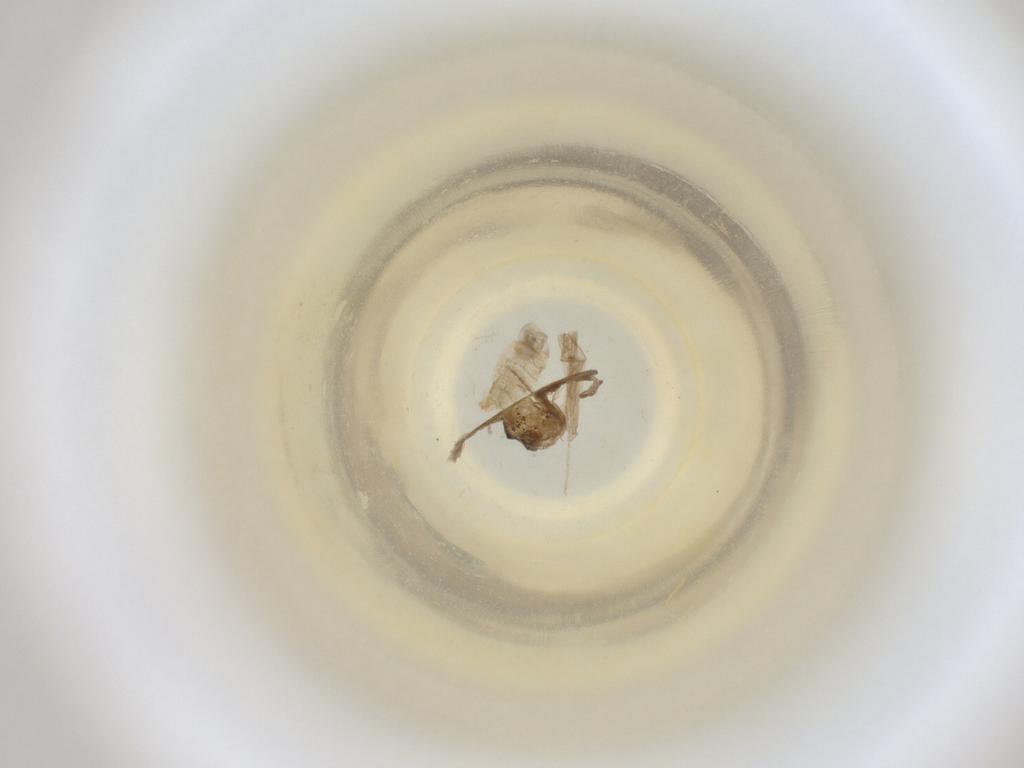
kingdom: Animalia
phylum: Arthropoda
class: Insecta
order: Diptera
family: Cecidomyiidae
